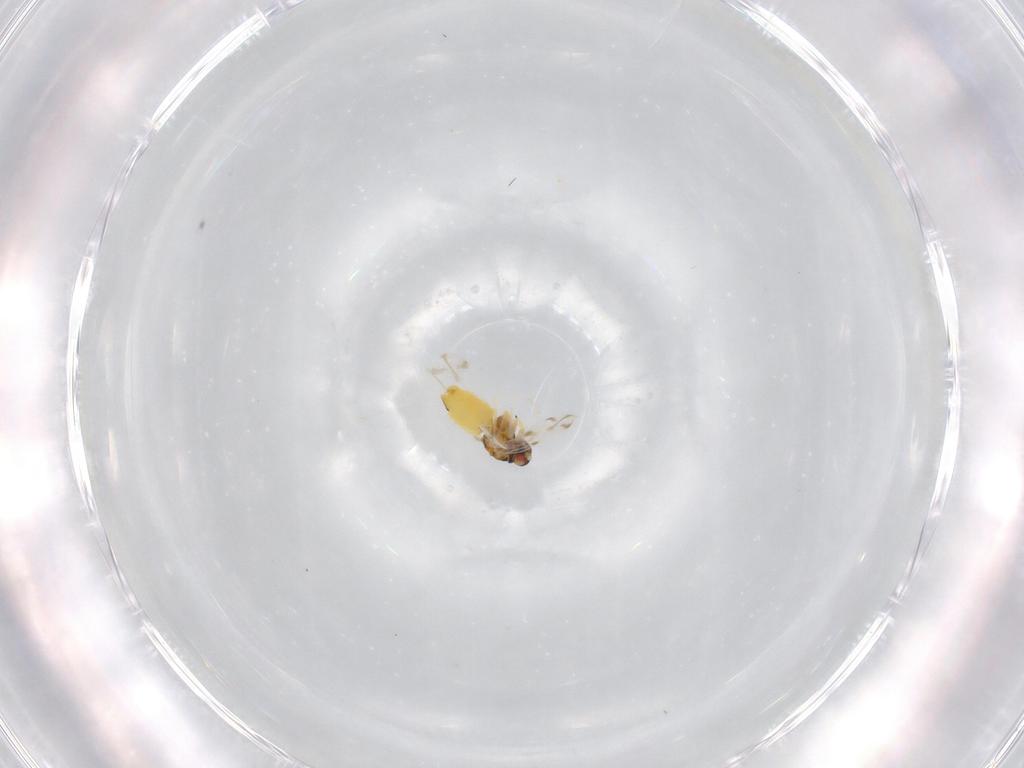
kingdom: Animalia
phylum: Arthropoda
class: Insecta
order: Hemiptera
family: Aleyrodidae
